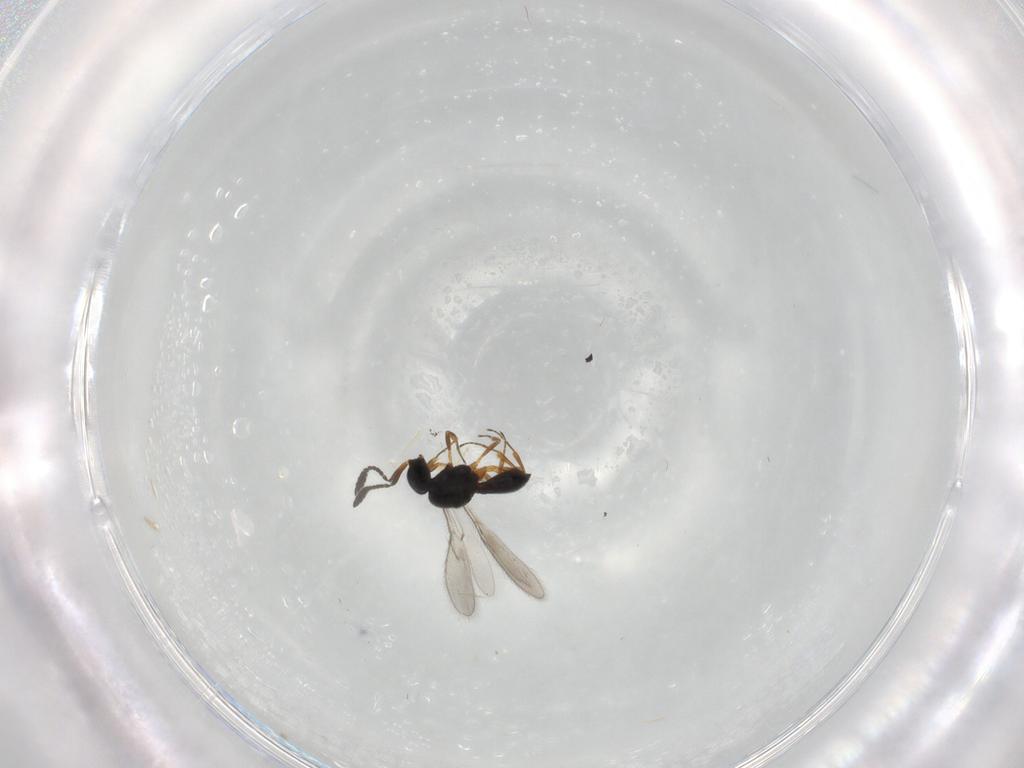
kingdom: Animalia
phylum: Arthropoda
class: Insecta
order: Hymenoptera
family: Scelionidae
